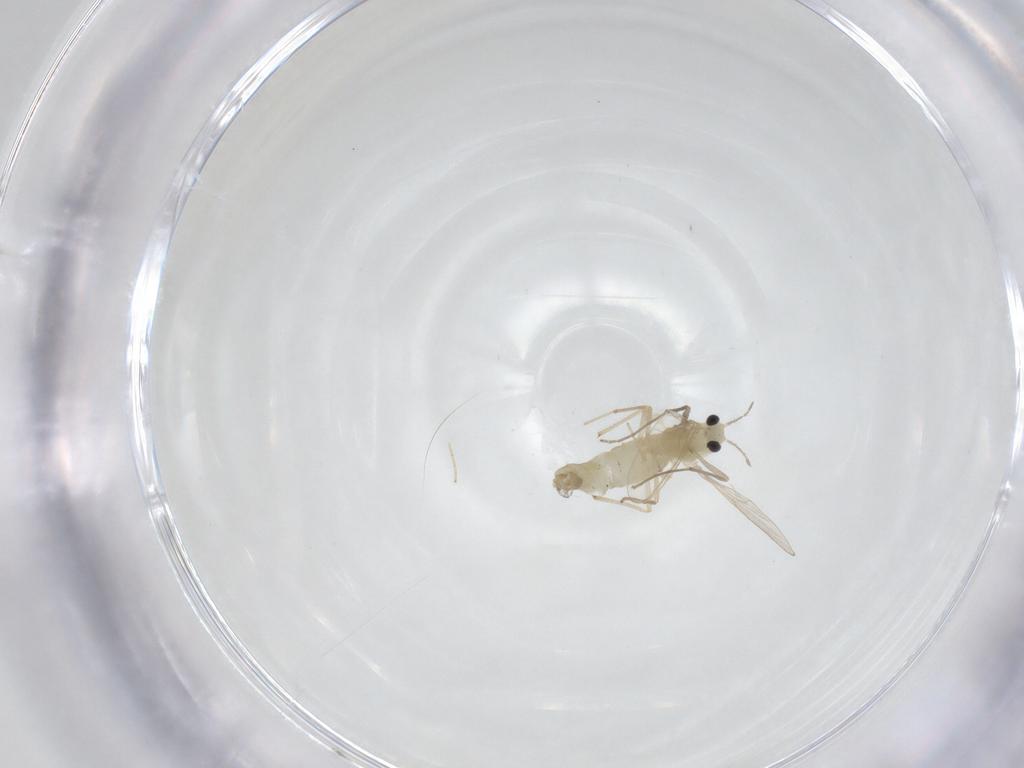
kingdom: Animalia
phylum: Arthropoda
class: Insecta
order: Diptera
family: Chironomidae
